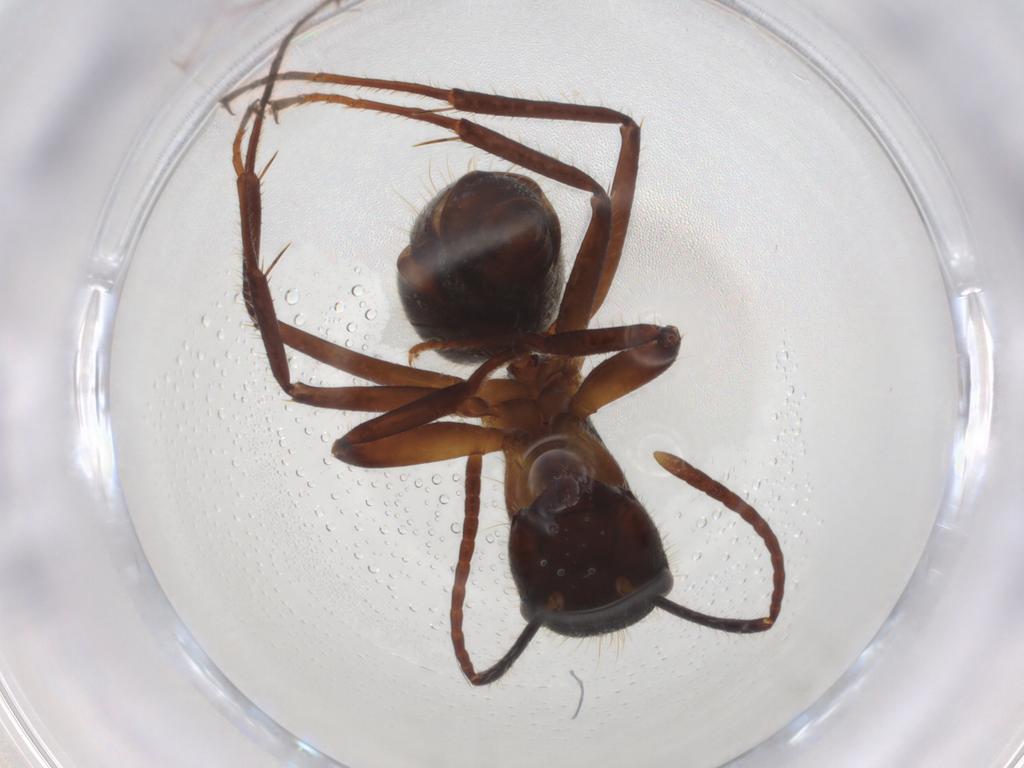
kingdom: Animalia
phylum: Arthropoda
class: Insecta
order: Hymenoptera
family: Formicidae
